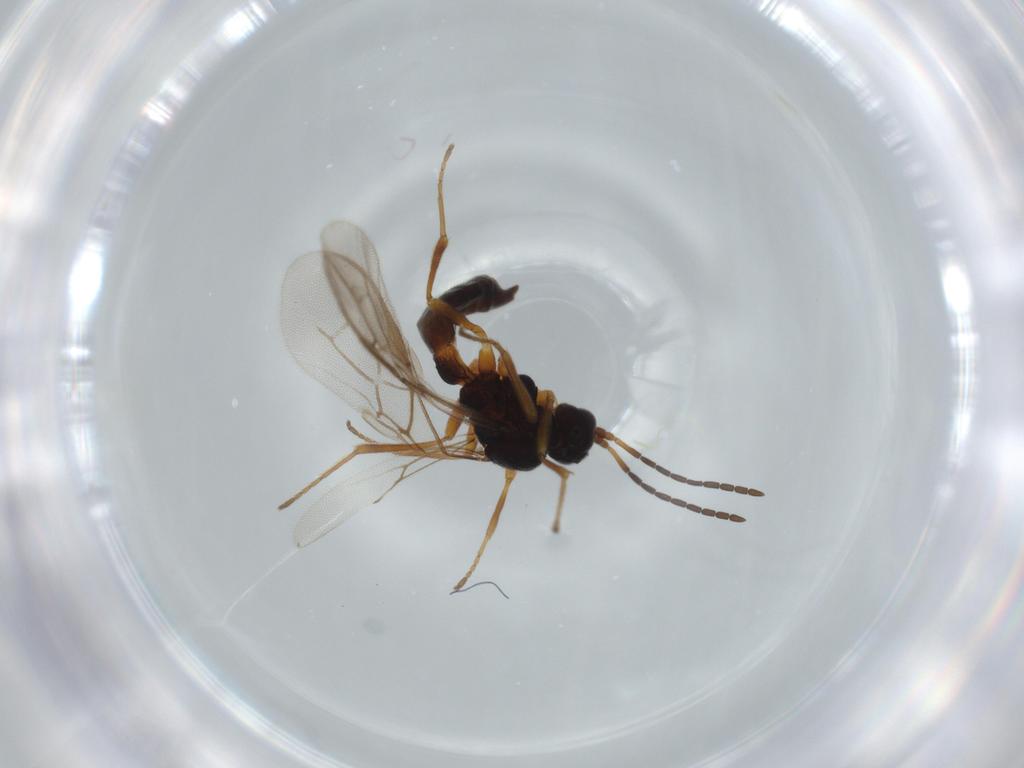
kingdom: Animalia
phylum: Arthropoda
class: Insecta
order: Hymenoptera
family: Braconidae
